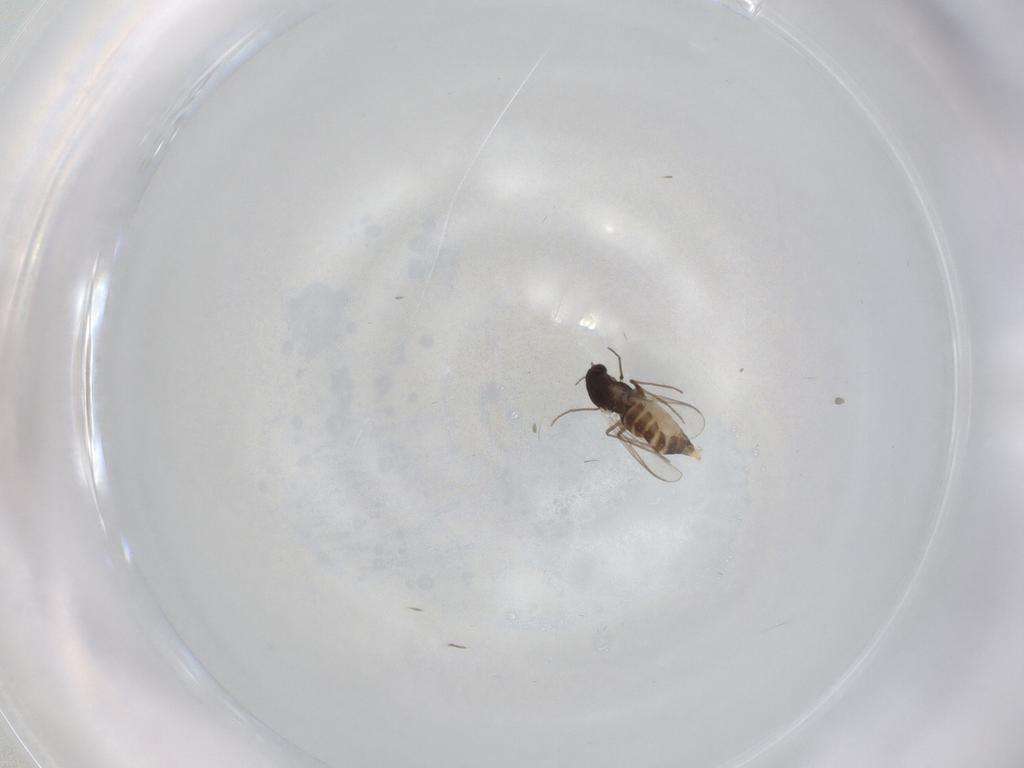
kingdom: Animalia
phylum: Arthropoda
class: Insecta
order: Diptera
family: Chironomidae
